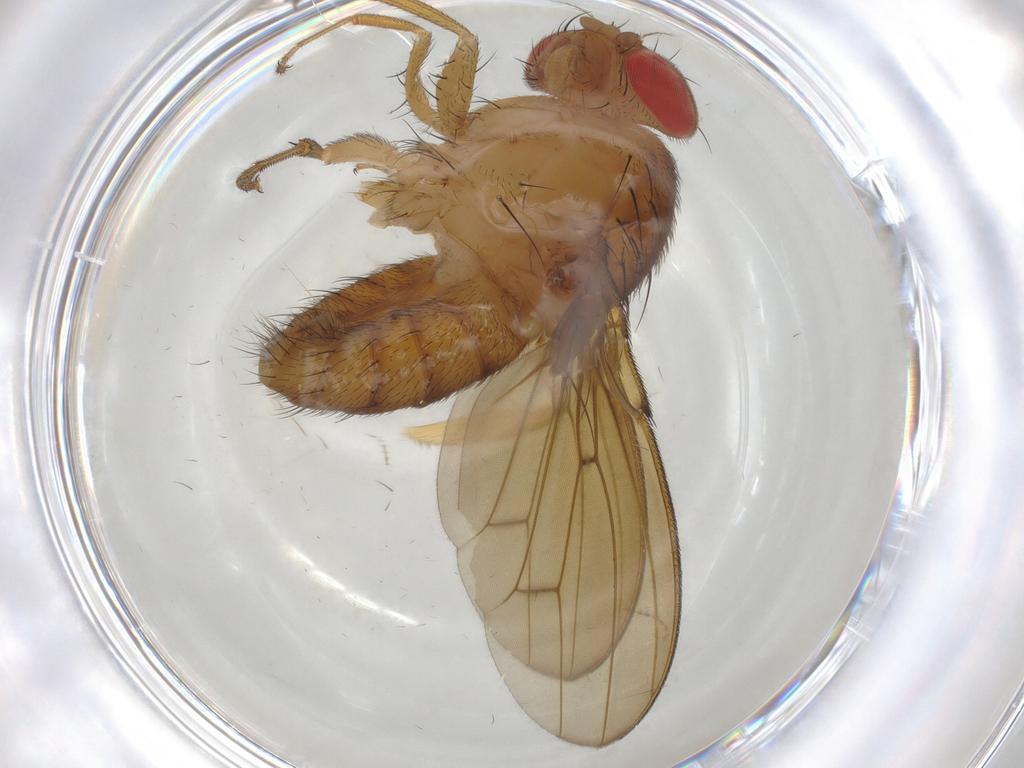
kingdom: Animalia
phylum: Arthropoda
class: Insecta
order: Diptera
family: Drosophilidae
